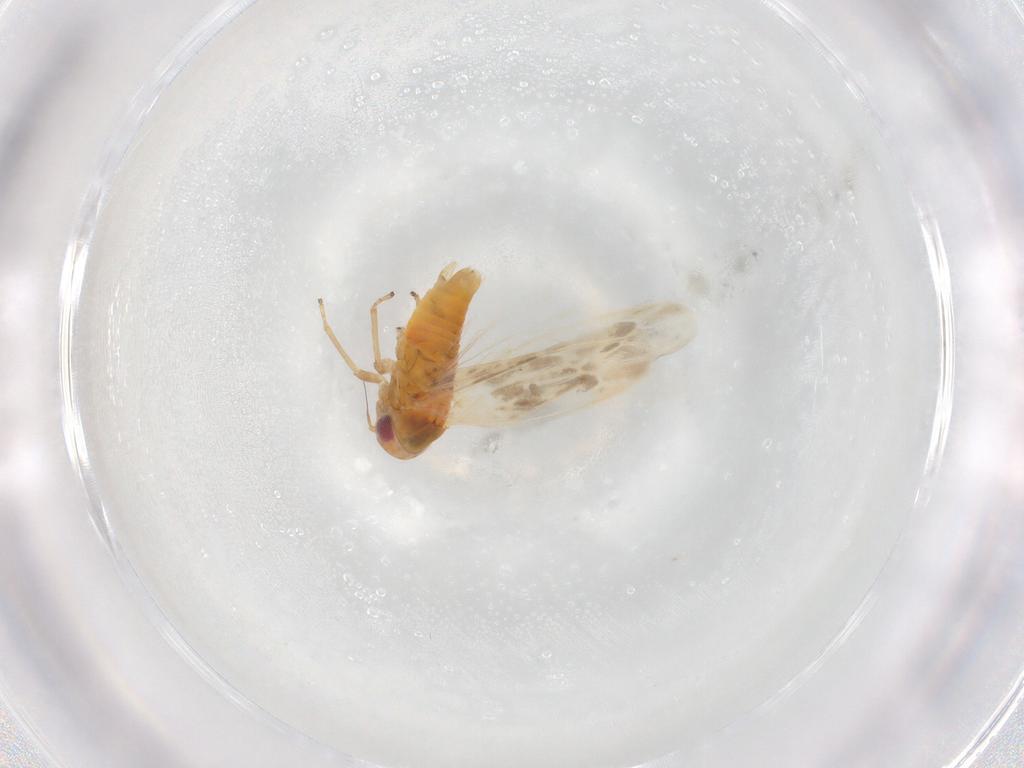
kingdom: Animalia
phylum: Arthropoda
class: Insecta
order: Hemiptera
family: Cicadellidae
